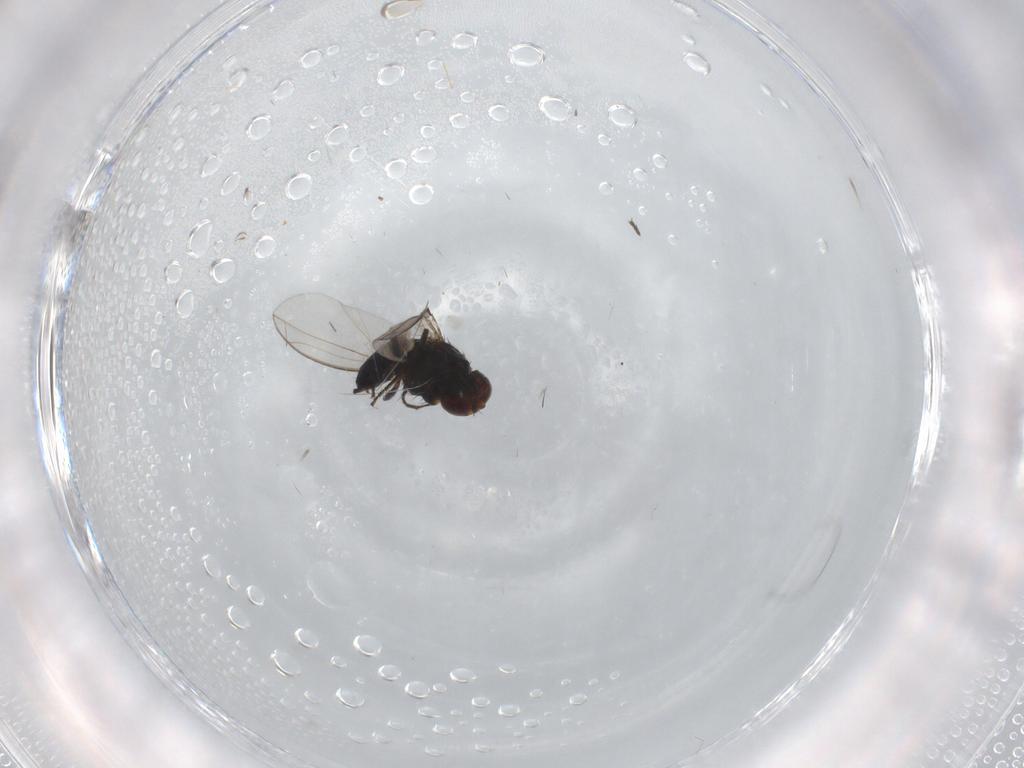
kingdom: Animalia
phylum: Arthropoda
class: Insecta
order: Diptera
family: Carnidae
